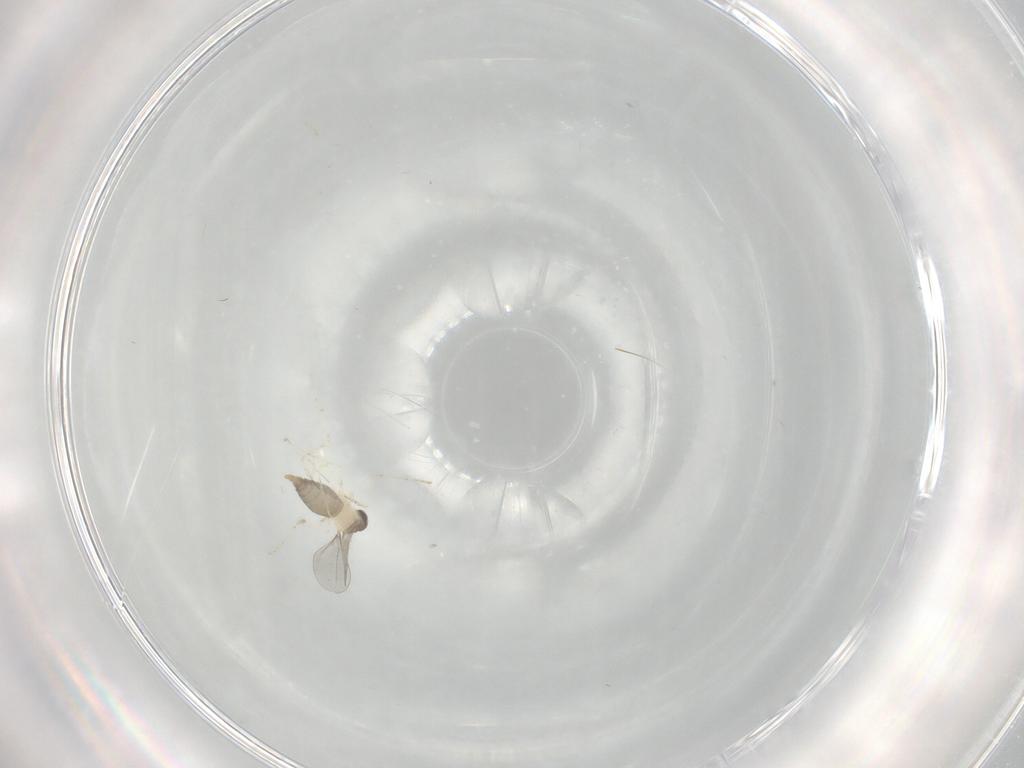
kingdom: Animalia
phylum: Arthropoda
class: Insecta
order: Diptera
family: Cecidomyiidae
